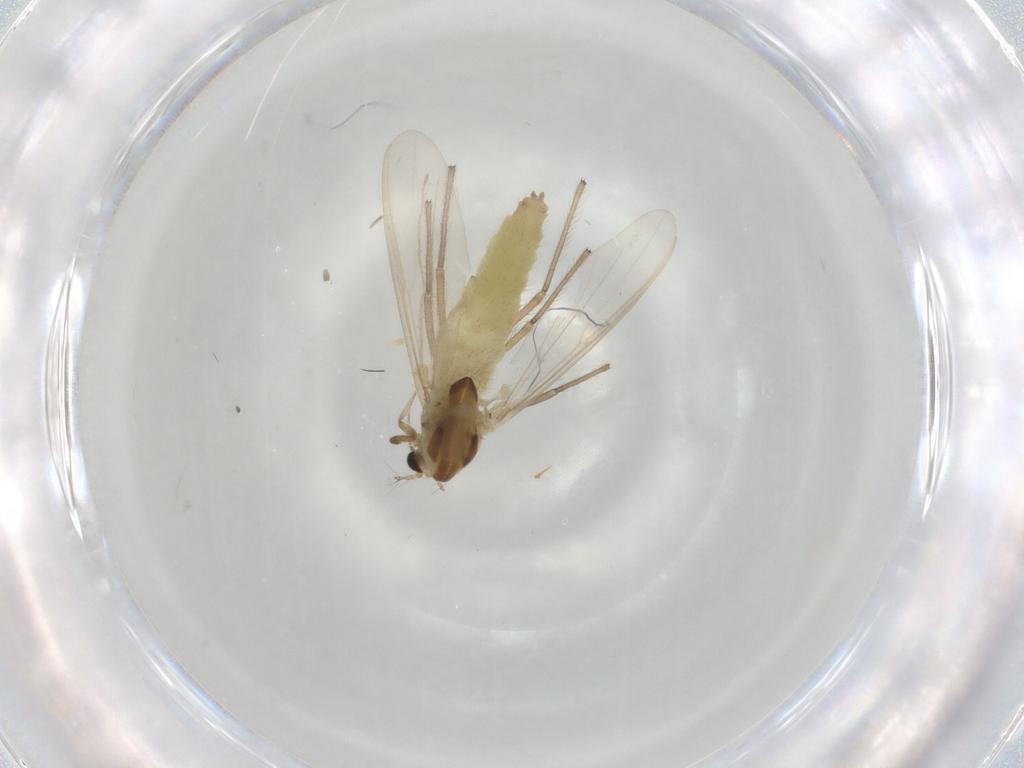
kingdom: Animalia
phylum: Arthropoda
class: Insecta
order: Diptera
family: Chironomidae
